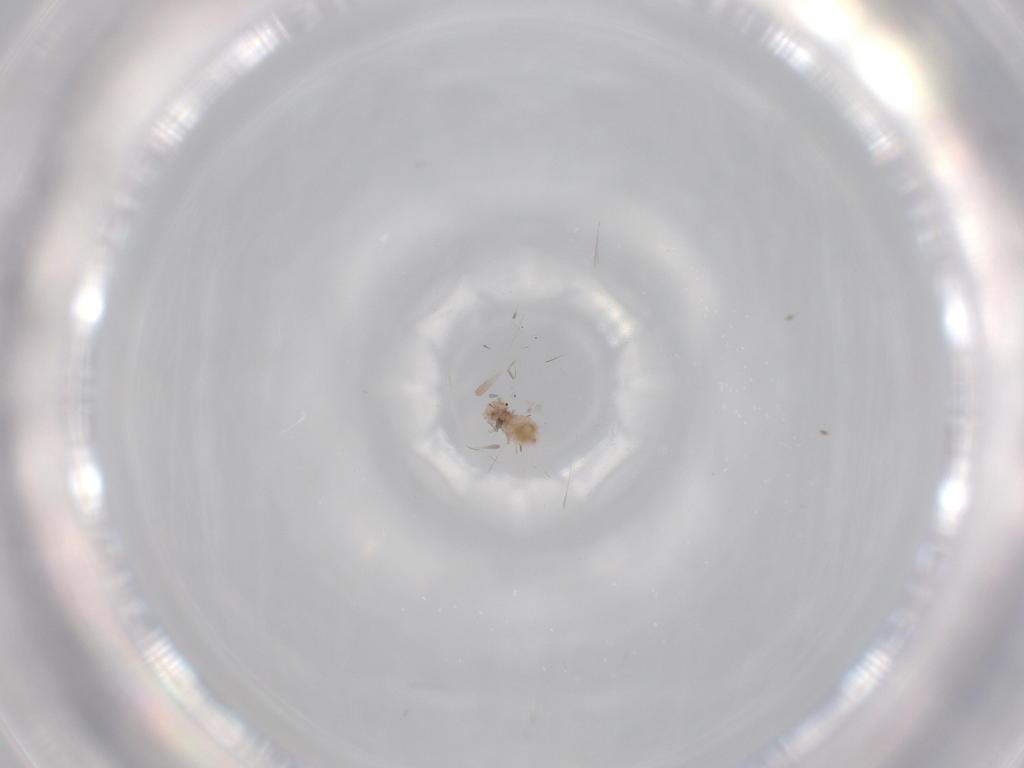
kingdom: Animalia
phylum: Arthropoda
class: Insecta
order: Psocodea
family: Ectopsocidae
